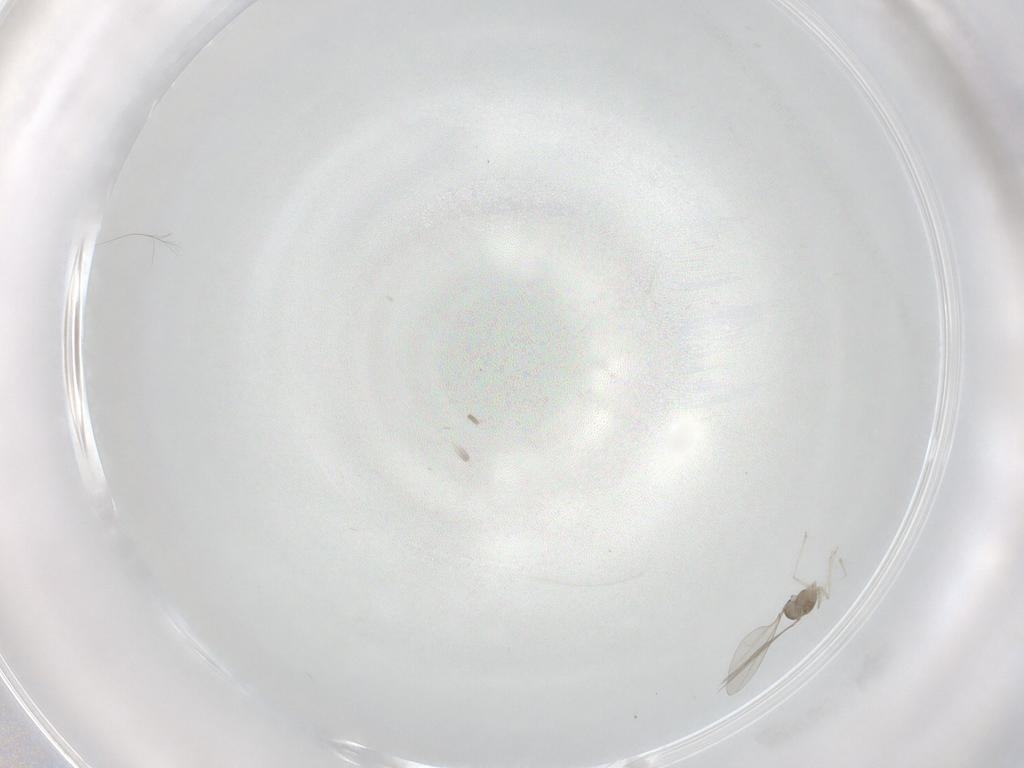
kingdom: Animalia
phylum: Arthropoda
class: Insecta
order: Diptera
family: Cecidomyiidae
